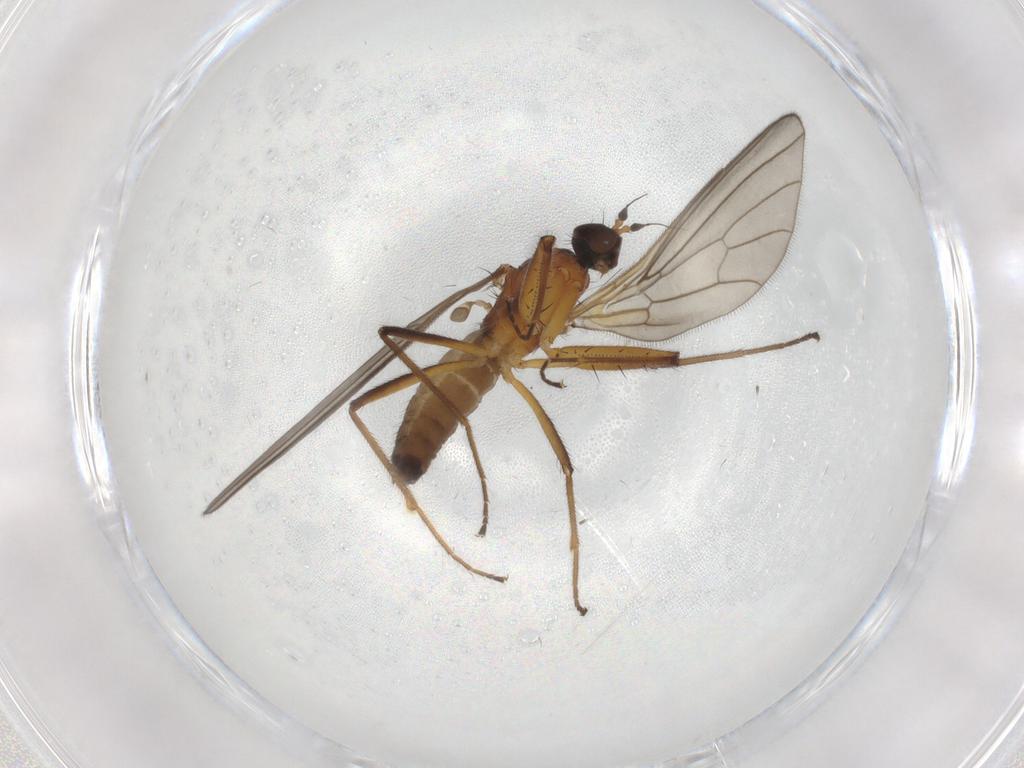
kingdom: Animalia
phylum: Arthropoda
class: Insecta
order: Diptera
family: Empididae
